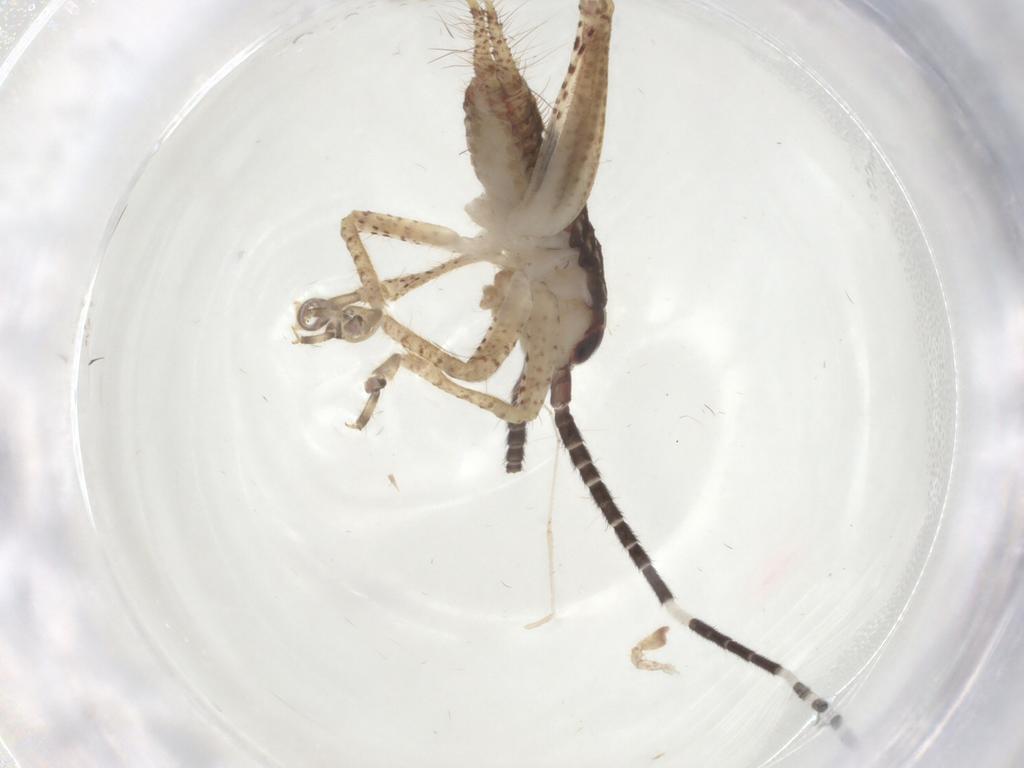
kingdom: Animalia
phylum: Arthropoda
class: Insecta
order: Orthoptera
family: Gryllidae
